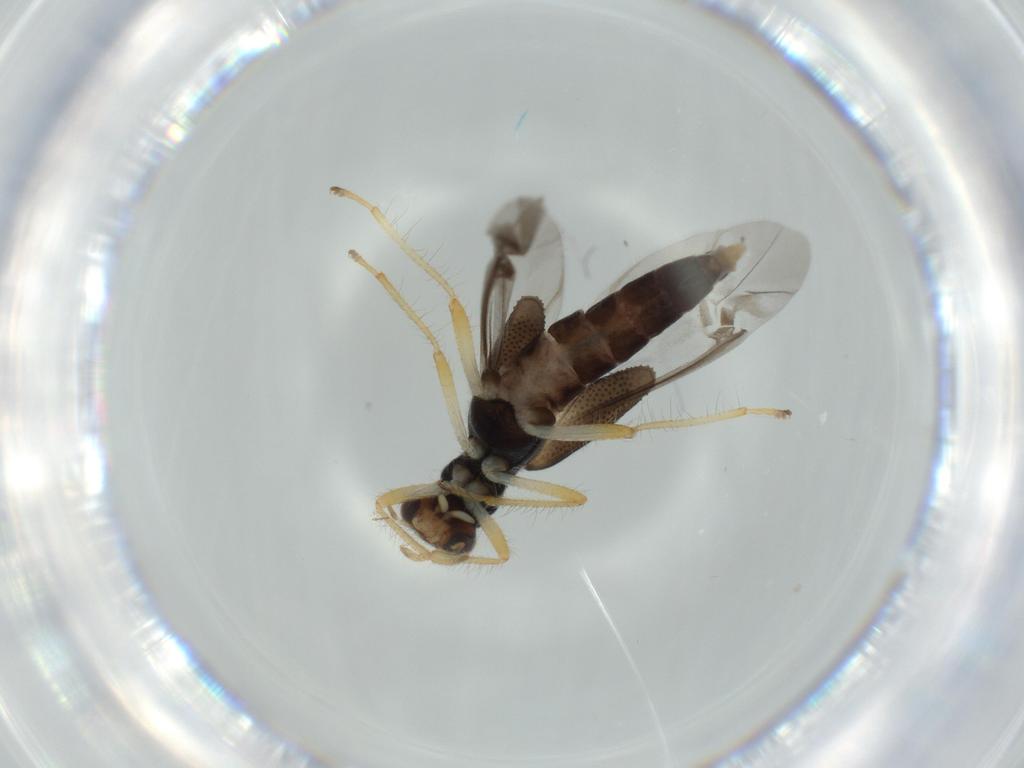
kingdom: Animalia
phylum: Arthropoda
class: Insecta
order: Coleoptera
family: Cleridae
